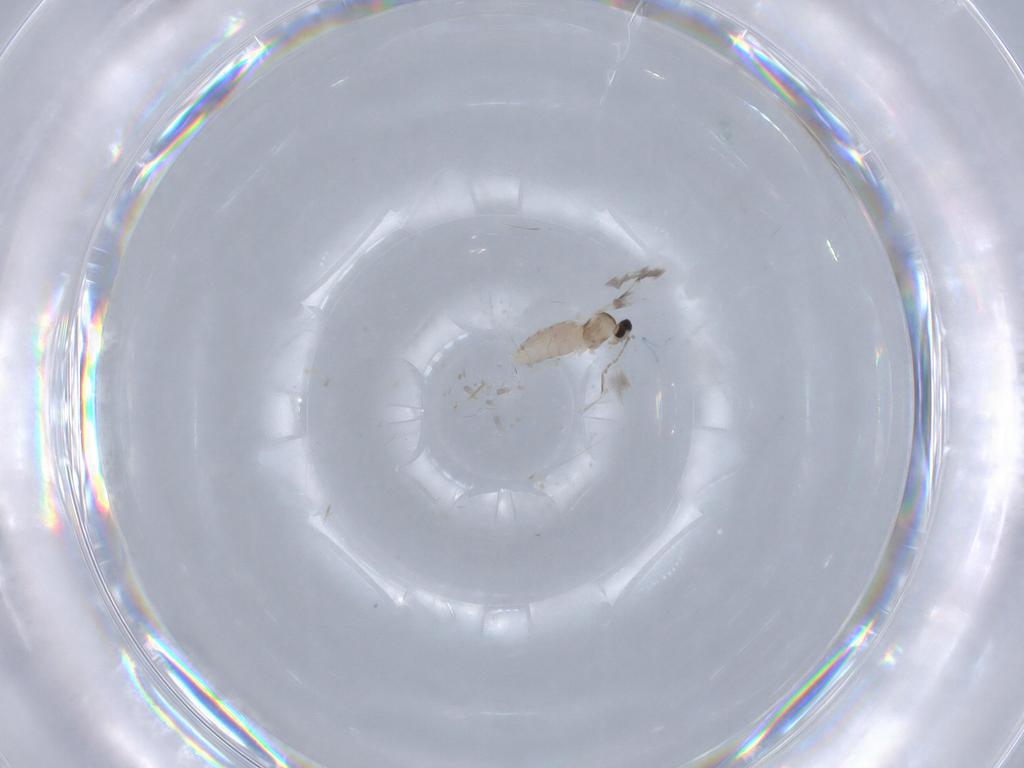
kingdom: Animalia
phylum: Arthropoda
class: Insecta
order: Diptera
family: Cecidomyiidae
